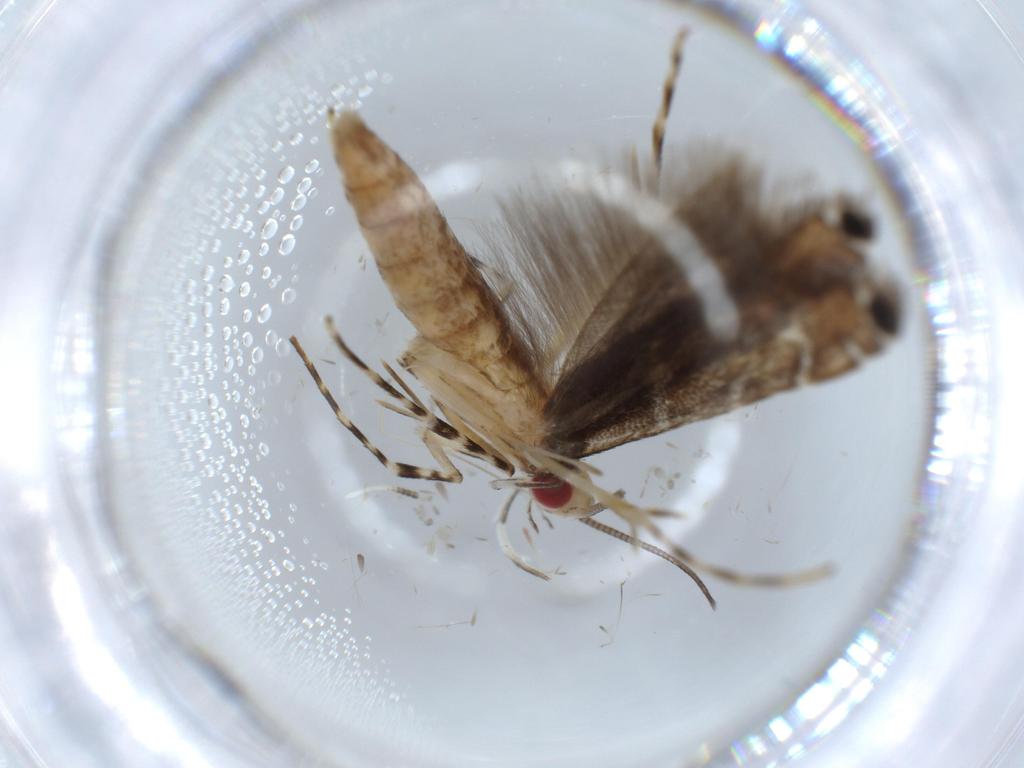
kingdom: Animalia
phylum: Arthropoda
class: Insecta
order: Lepidoptera
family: Gracillariidae
